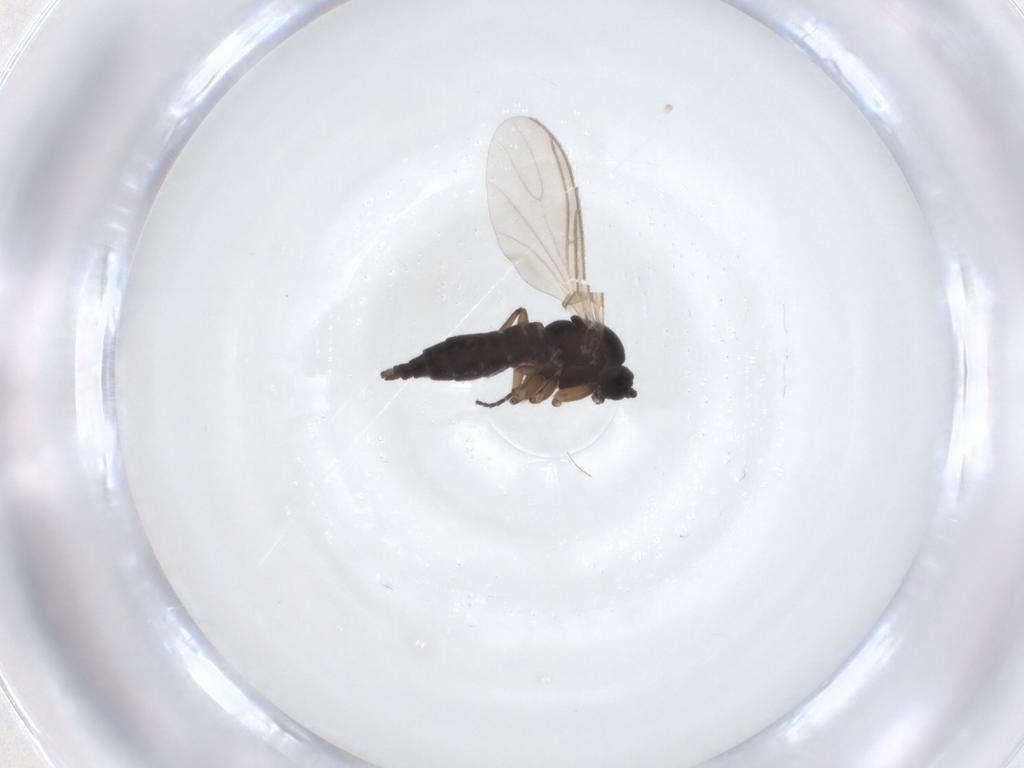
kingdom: Animalia
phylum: Arthropoda
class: Insecta
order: Diptera
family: Sciaridae
